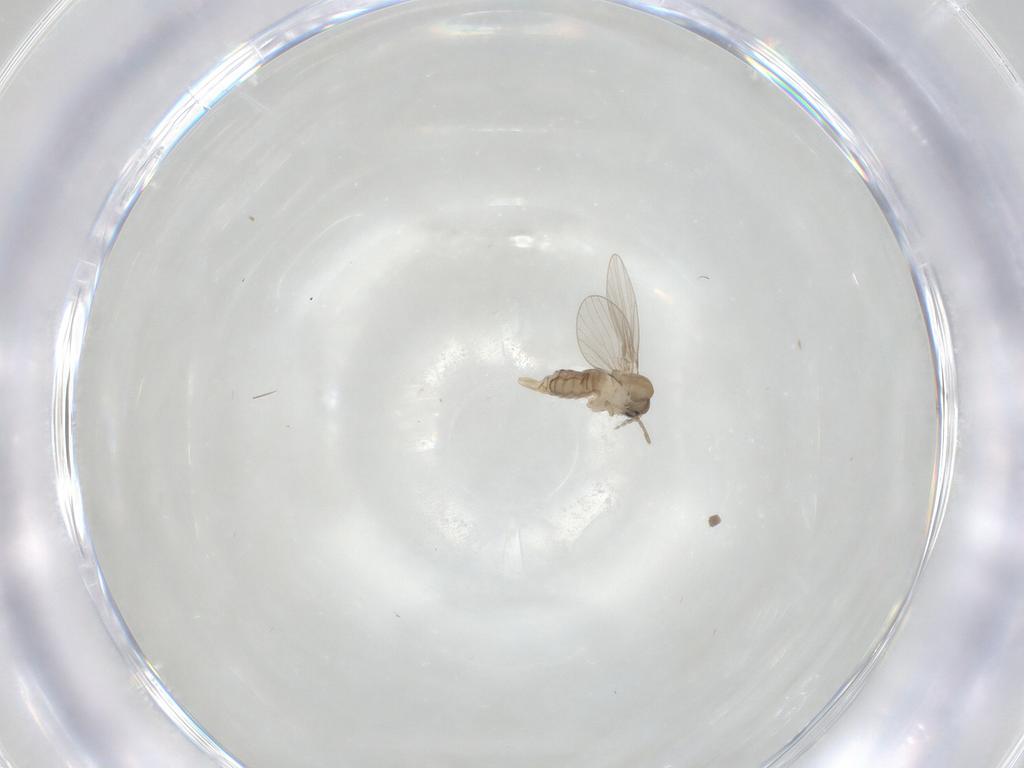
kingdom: Animalia
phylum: Arthropoda
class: Insecta
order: Diptera
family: Psychodidae
